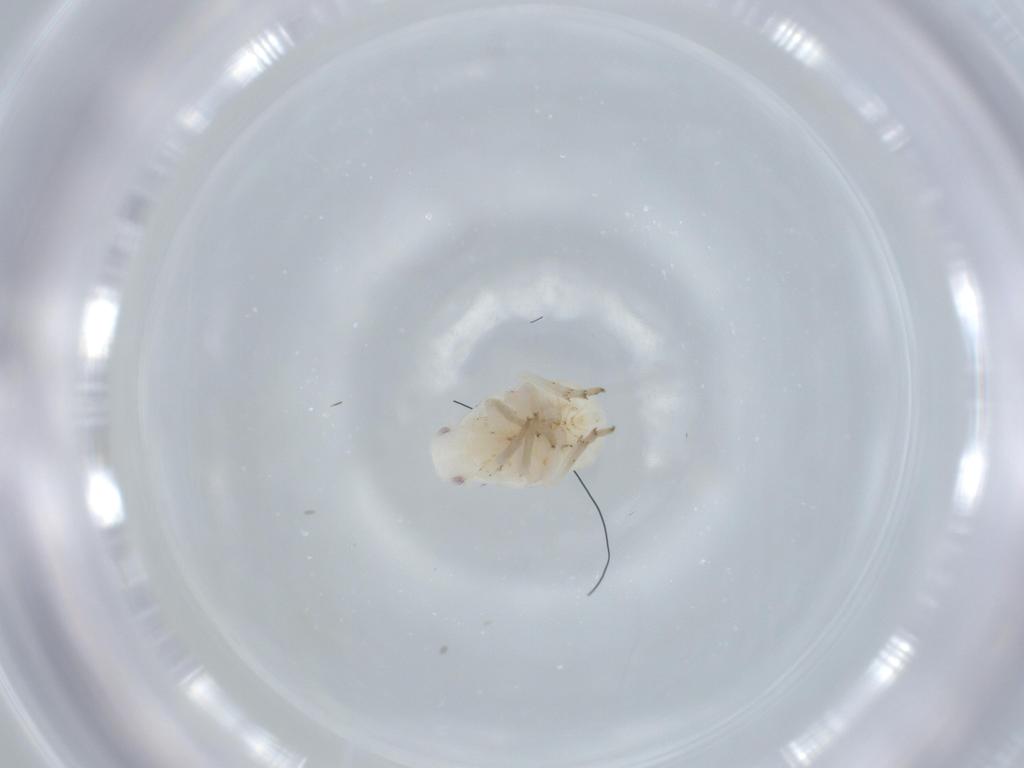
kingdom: Animalia
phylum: Arthropoda
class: Insecta
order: Hemiptera
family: Flatidae
